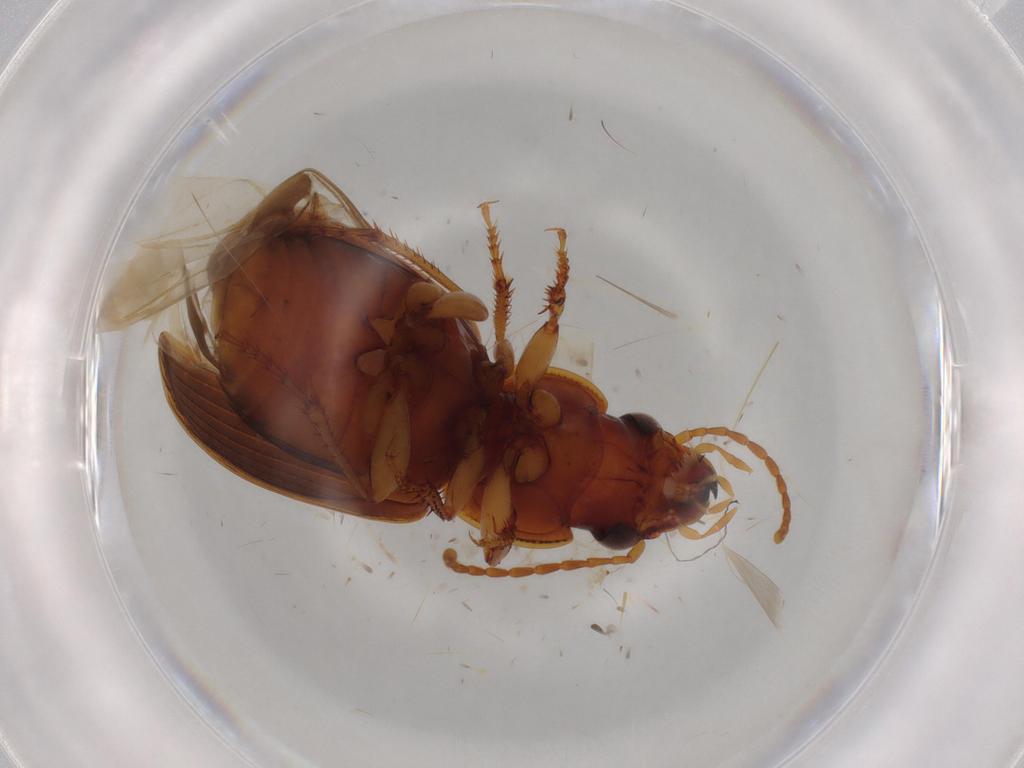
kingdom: Animalia
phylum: Arthropoda
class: Insecta
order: Coleoptera
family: Carabidae
